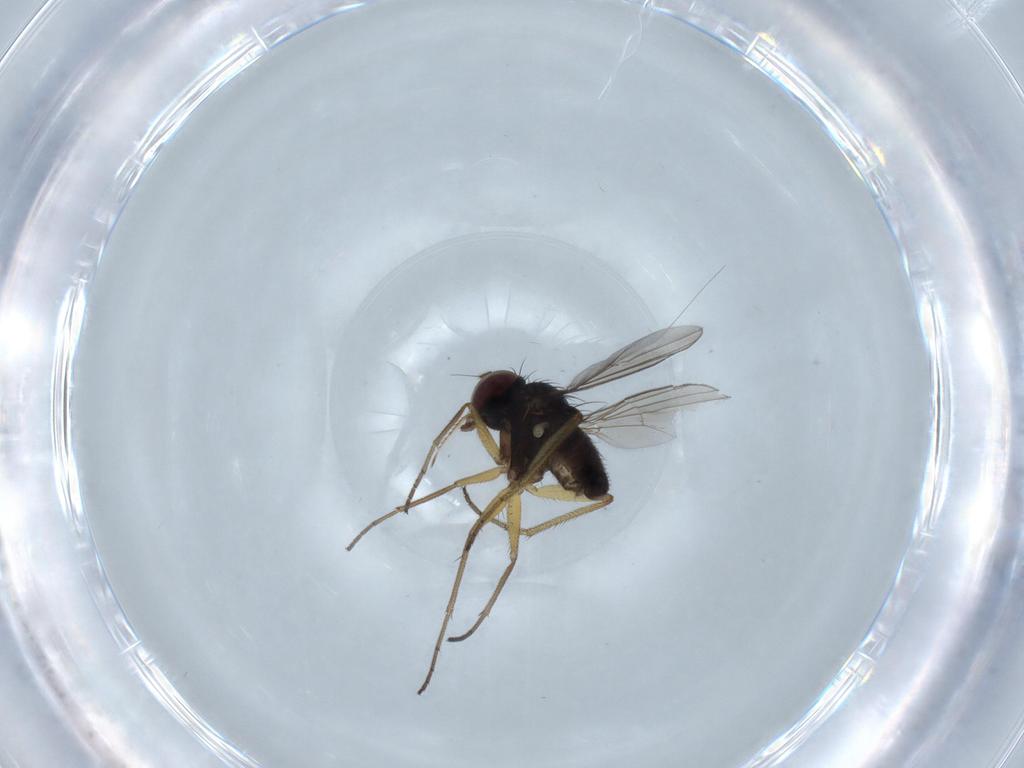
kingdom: Animalia
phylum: Arthropoda
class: Insecta
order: Diptera
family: Dolichopodidae
